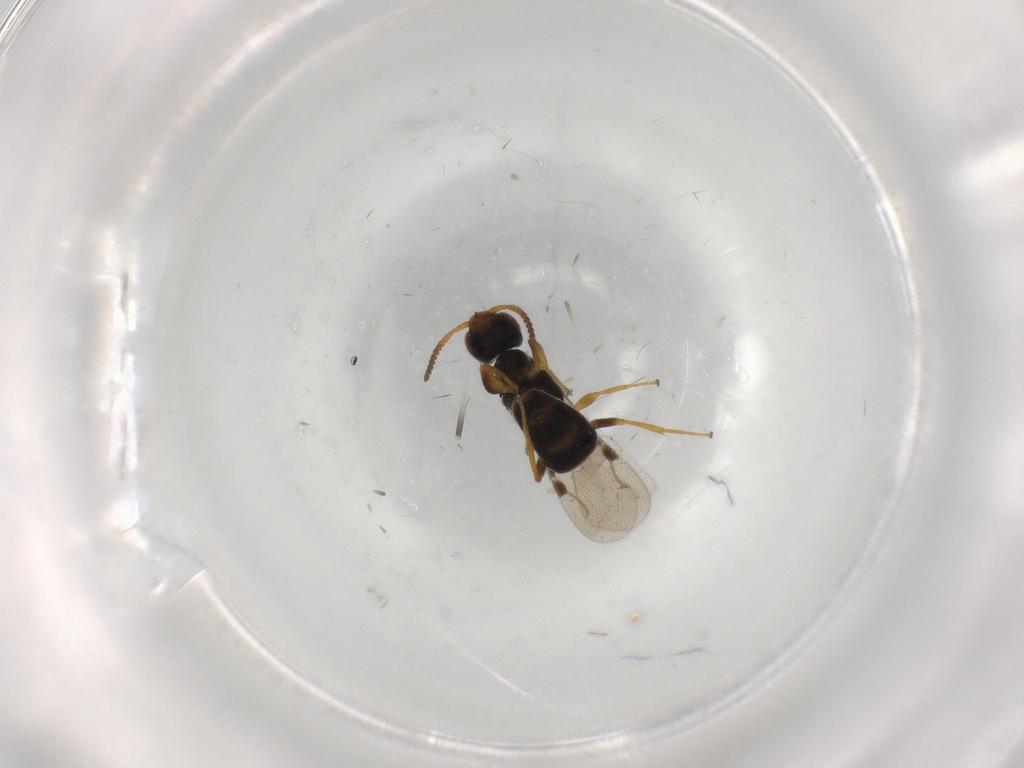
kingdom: Animalia
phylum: Arthropoda
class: Insecta
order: Hymenoptera
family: Bethylidae
